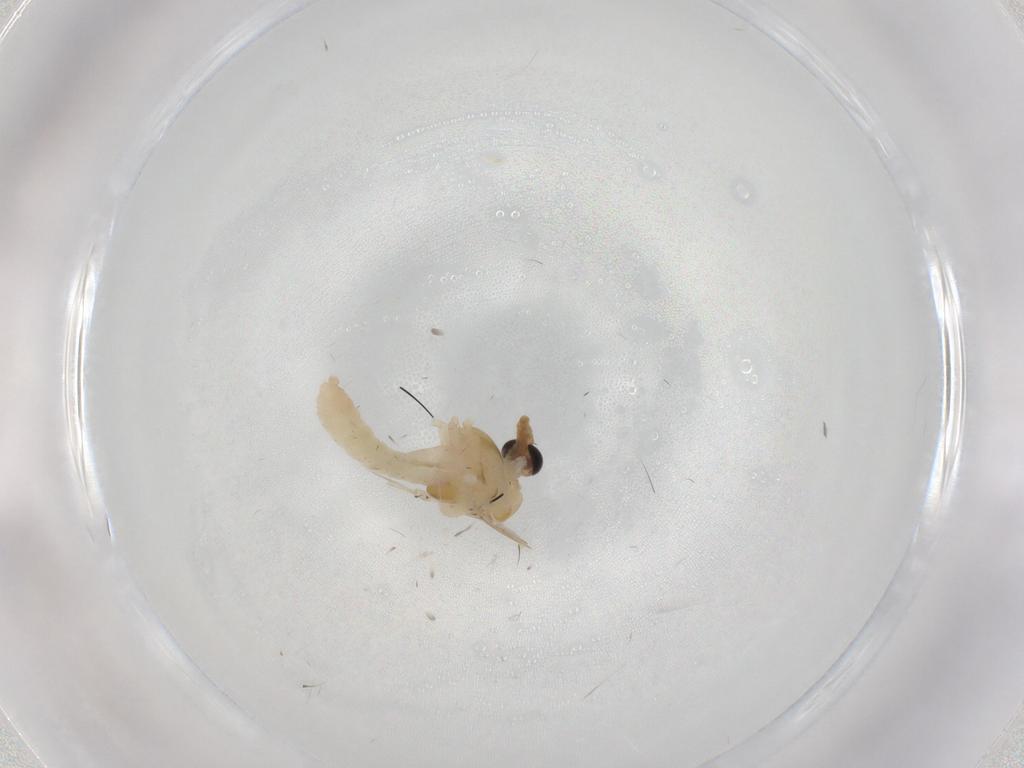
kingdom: Animalia
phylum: Arthropoda
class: Insecta
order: Diptera
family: Chironomidae
